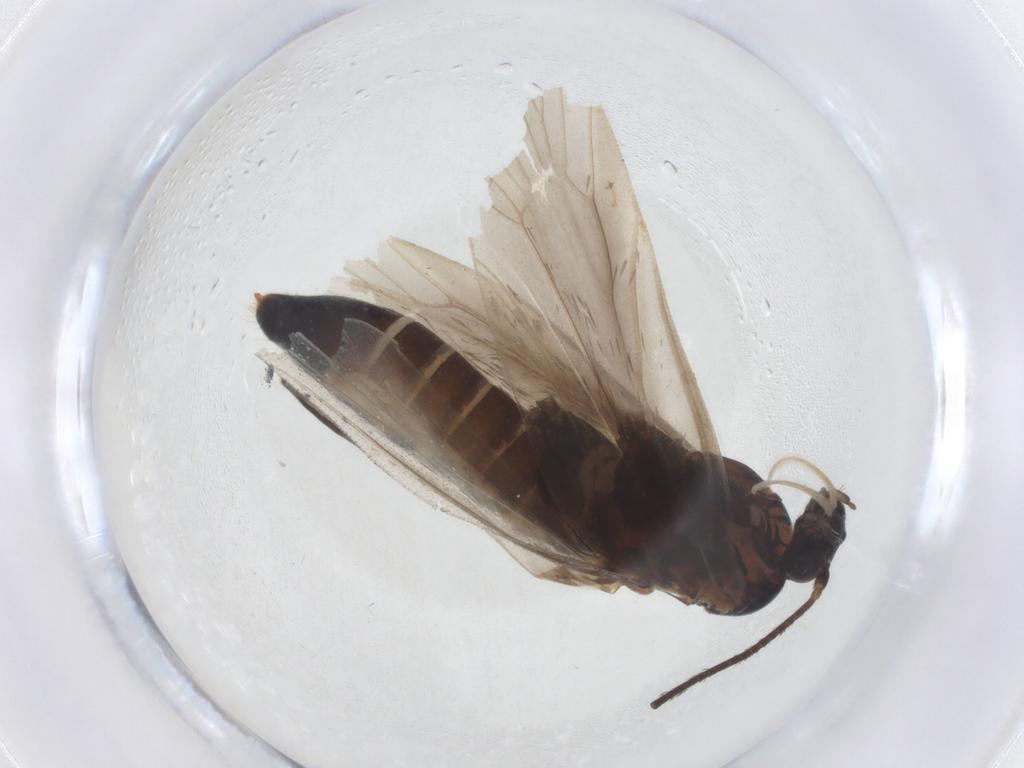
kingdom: Animalia
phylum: Arthropoda
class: Insecta
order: Lepidoptera
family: Prodoxidae
